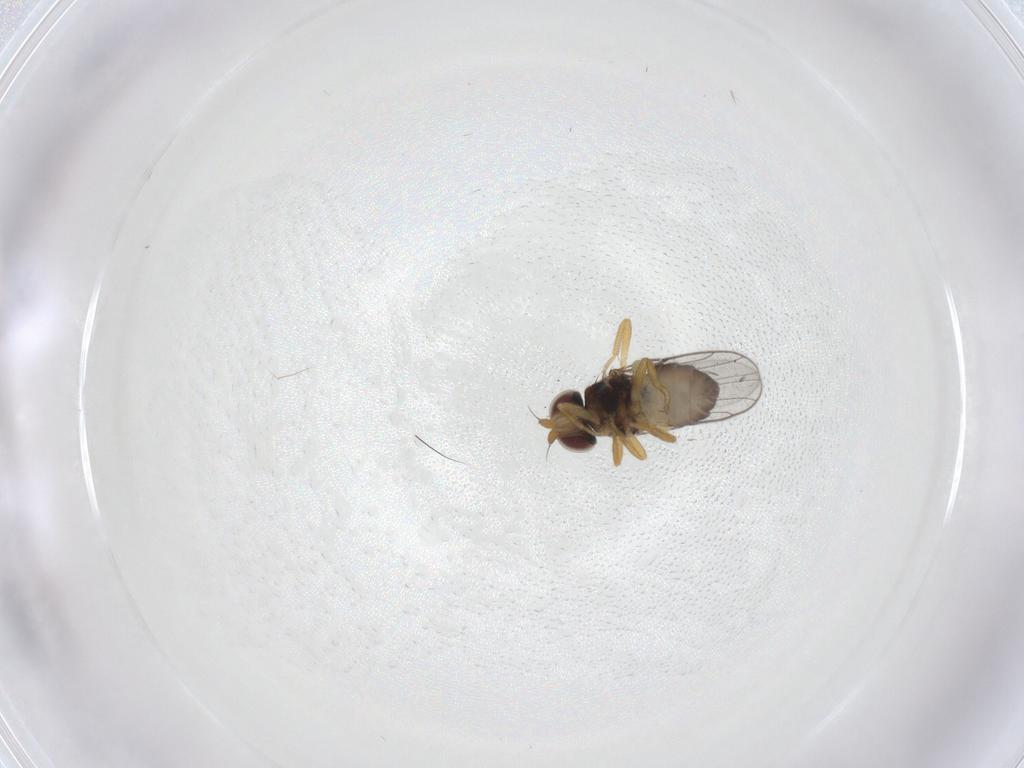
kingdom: Animalia
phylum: Arthropoda
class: Insecta
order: Diptera
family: Chloropidae
